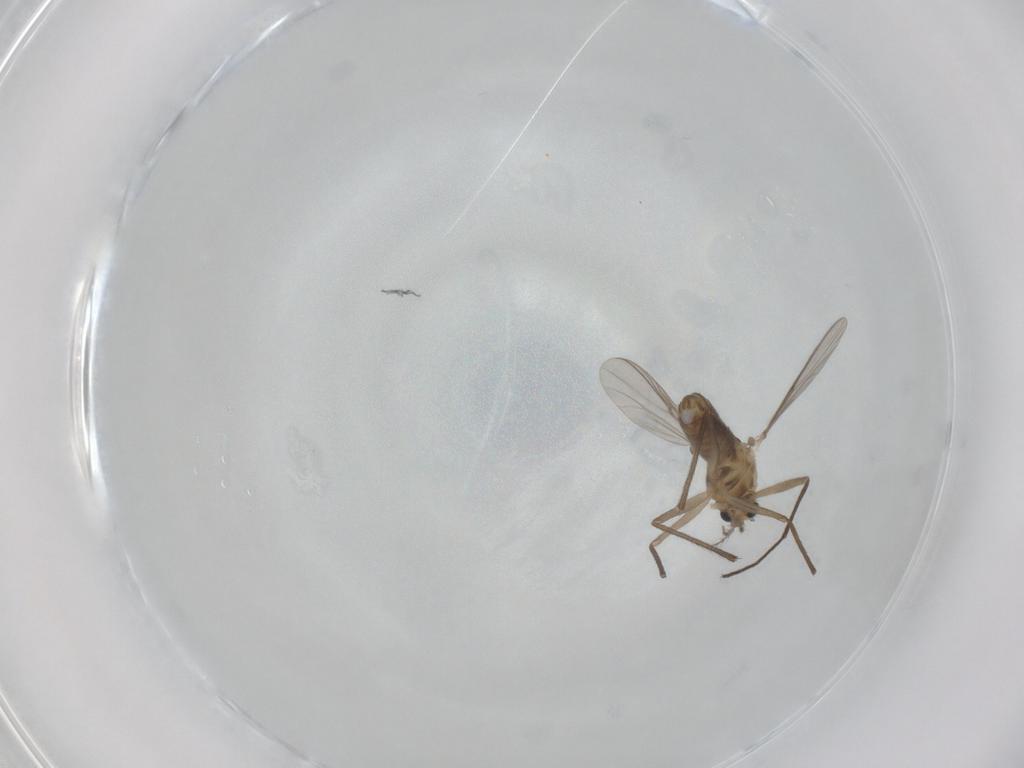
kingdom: Animalia
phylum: Arthropoda
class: Insecta
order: Diptera
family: Chironomidae
